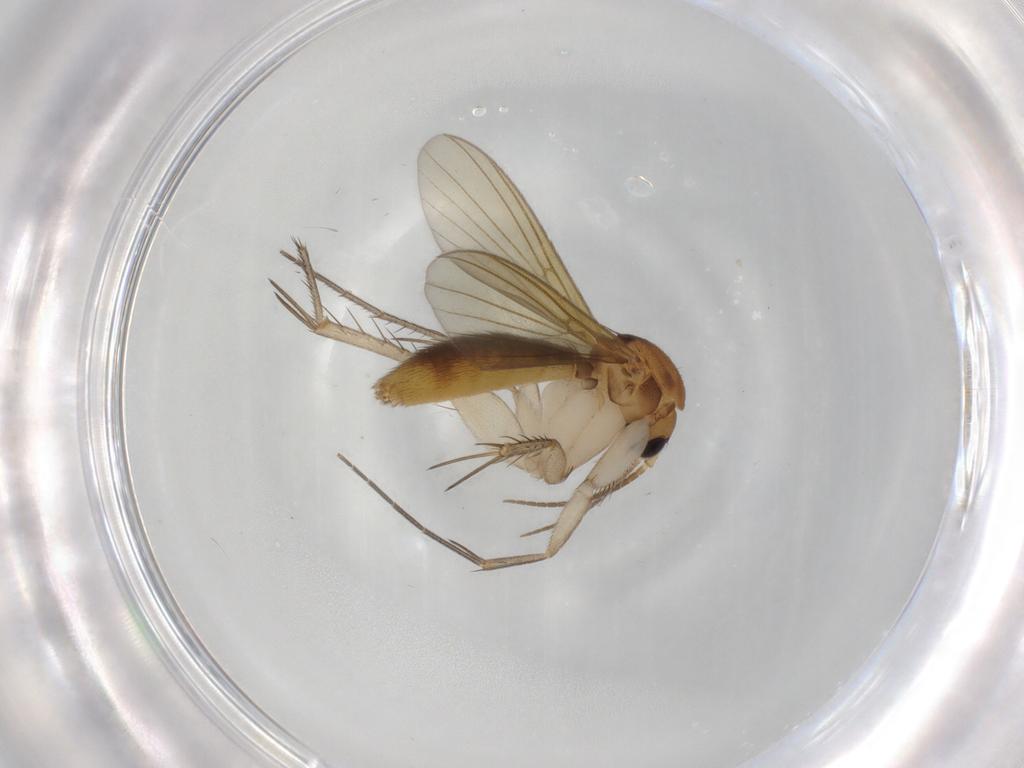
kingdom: Animalia
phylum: Arthropoda
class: Insecta
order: Diptera
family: Mycetophilidae
